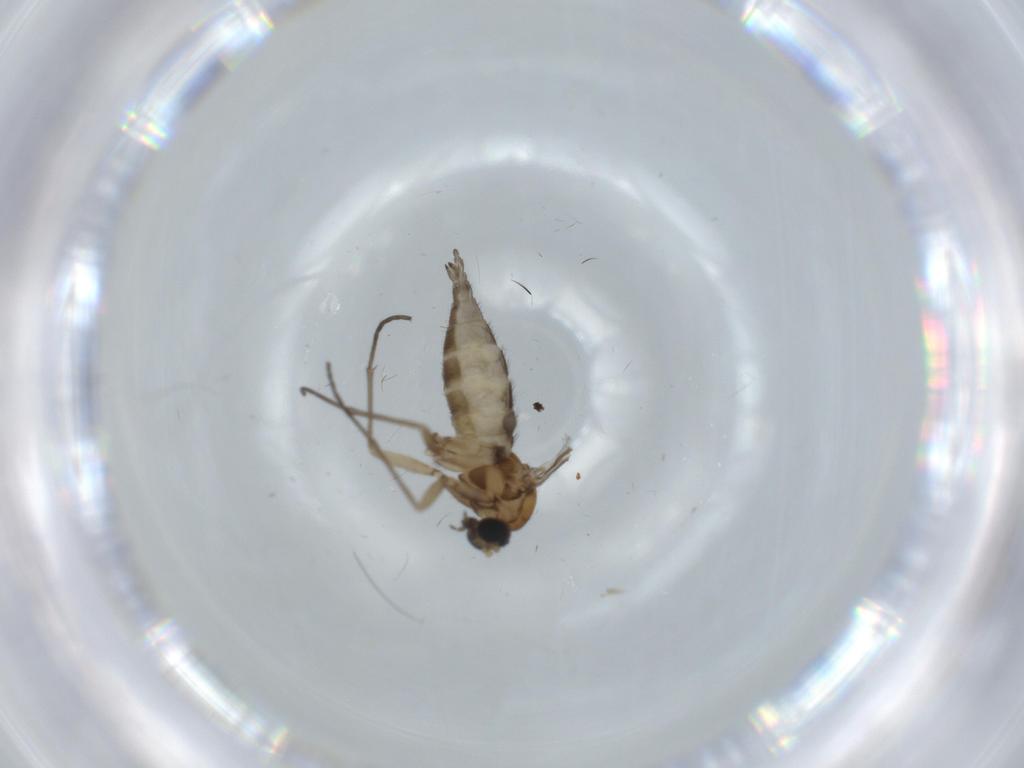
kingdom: Animalia
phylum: Arthropoda
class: Insecta
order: Diptera
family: Sciaridae
